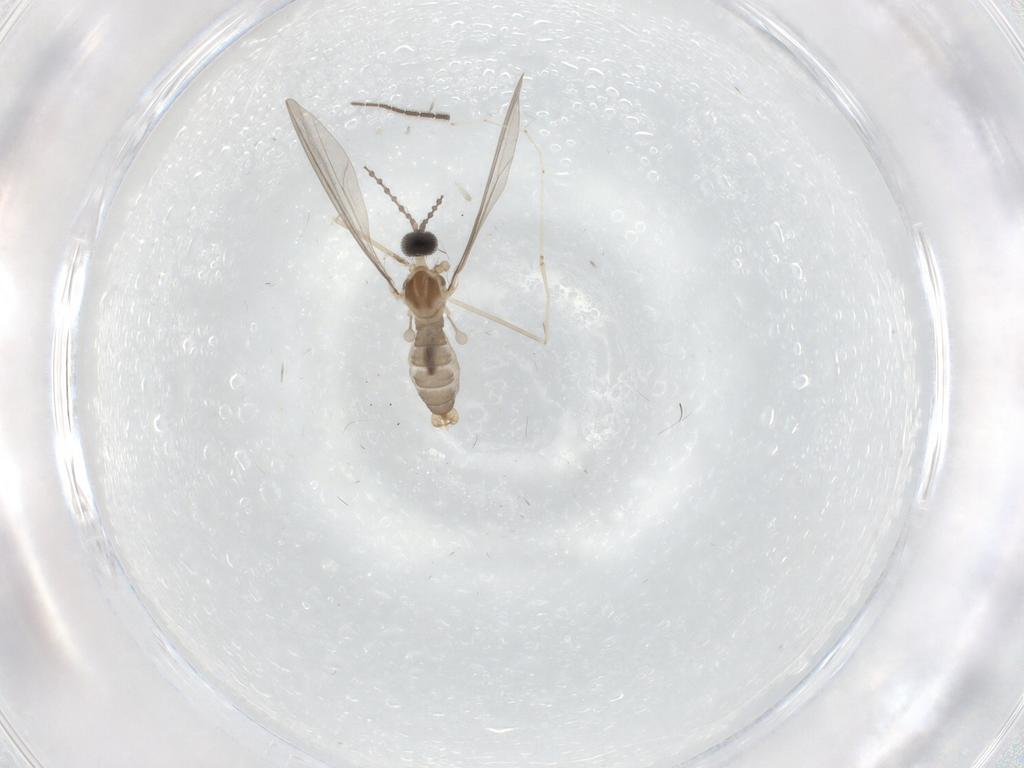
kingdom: Animalia
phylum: Arthropoda
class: Insecta
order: Diptera
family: Cecidomyiidae
